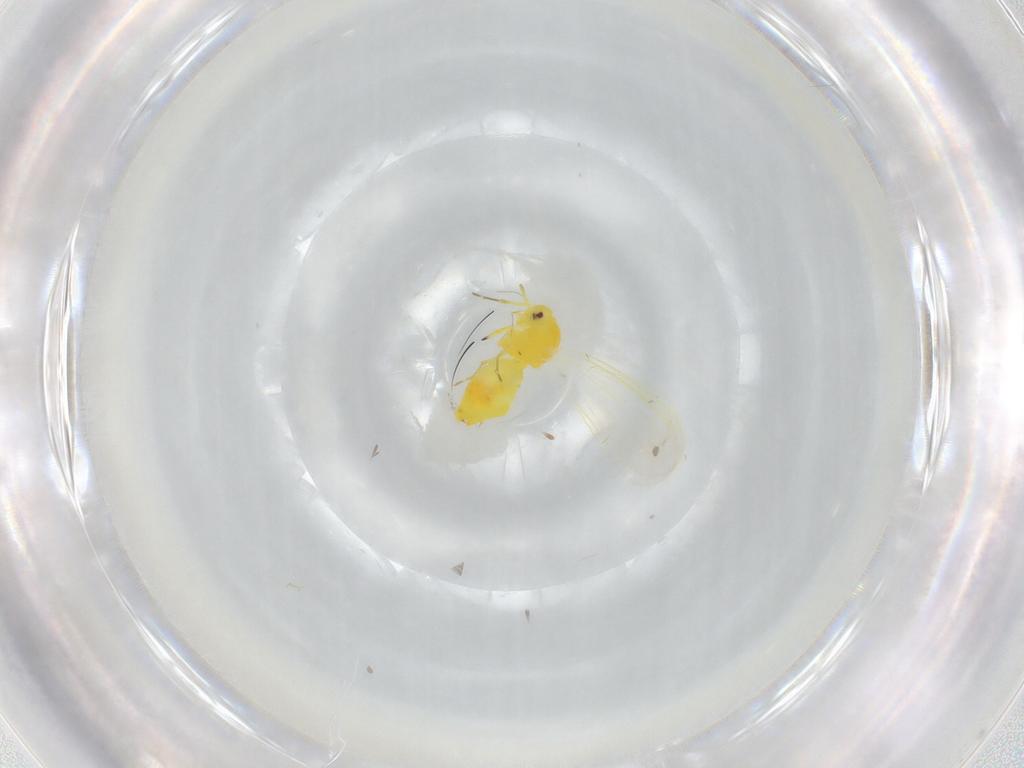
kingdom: Animalia
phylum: Arthropoda
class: Insecta
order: Hemiptera
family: Aleyrodidae
